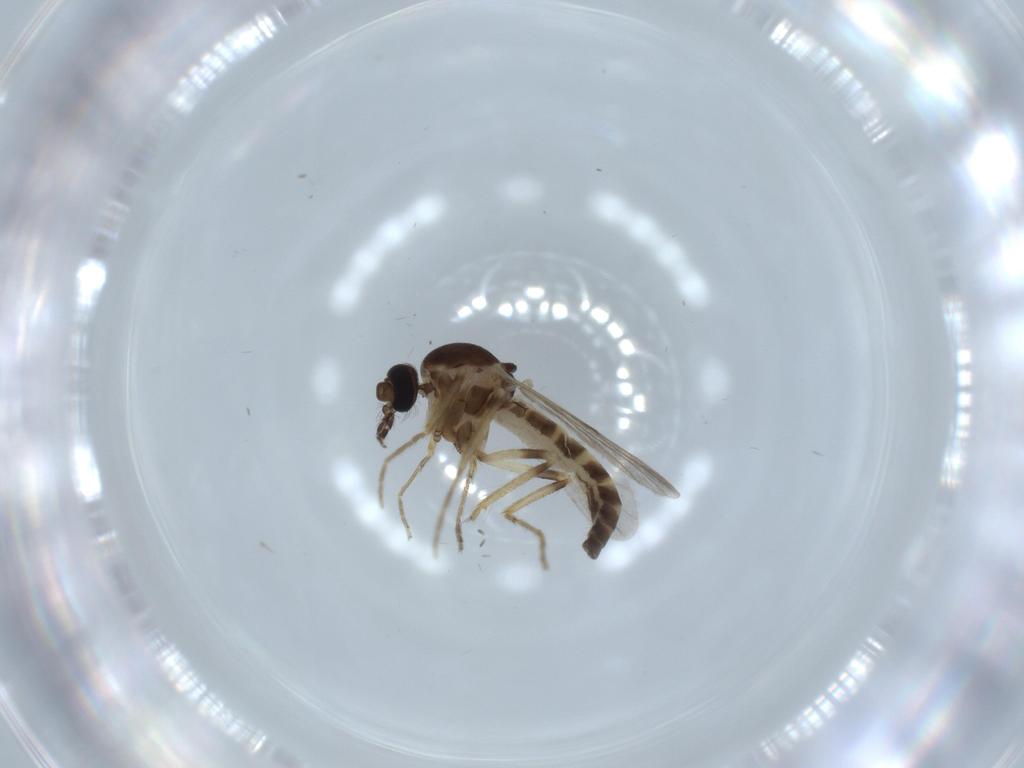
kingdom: Animalia
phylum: Arthropoda
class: Insecta
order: Diptera
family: Ceratopogonidae
